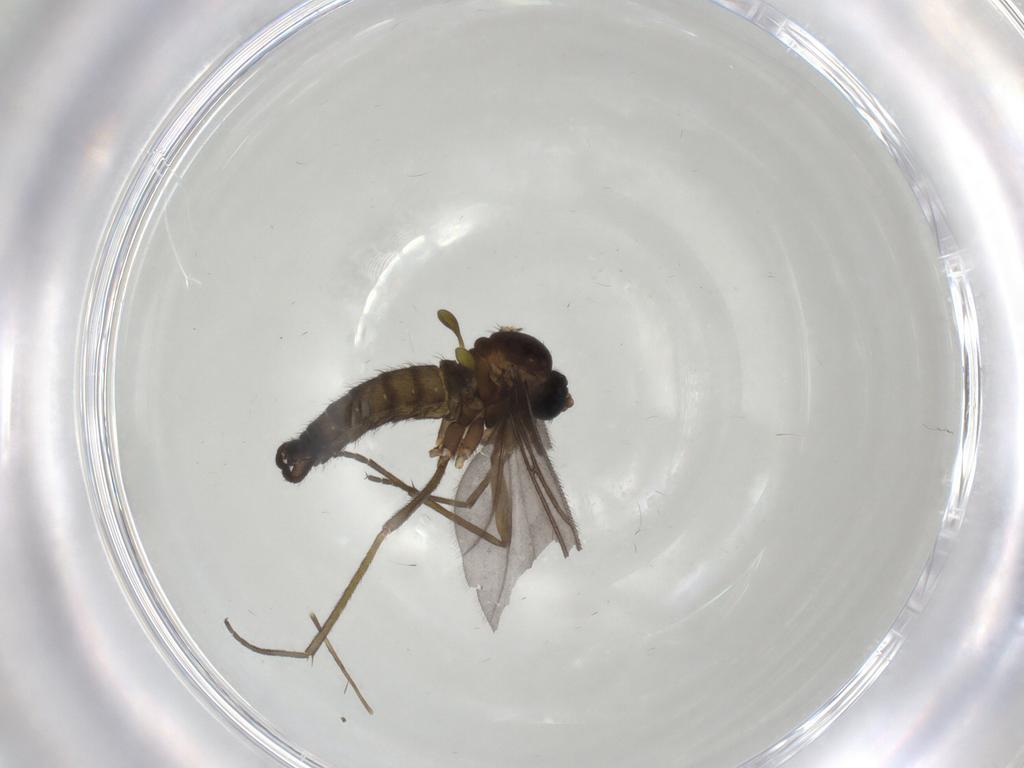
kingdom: Animalia
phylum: Arthropoda
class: Insecta
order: Diptera
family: Sciaridae
